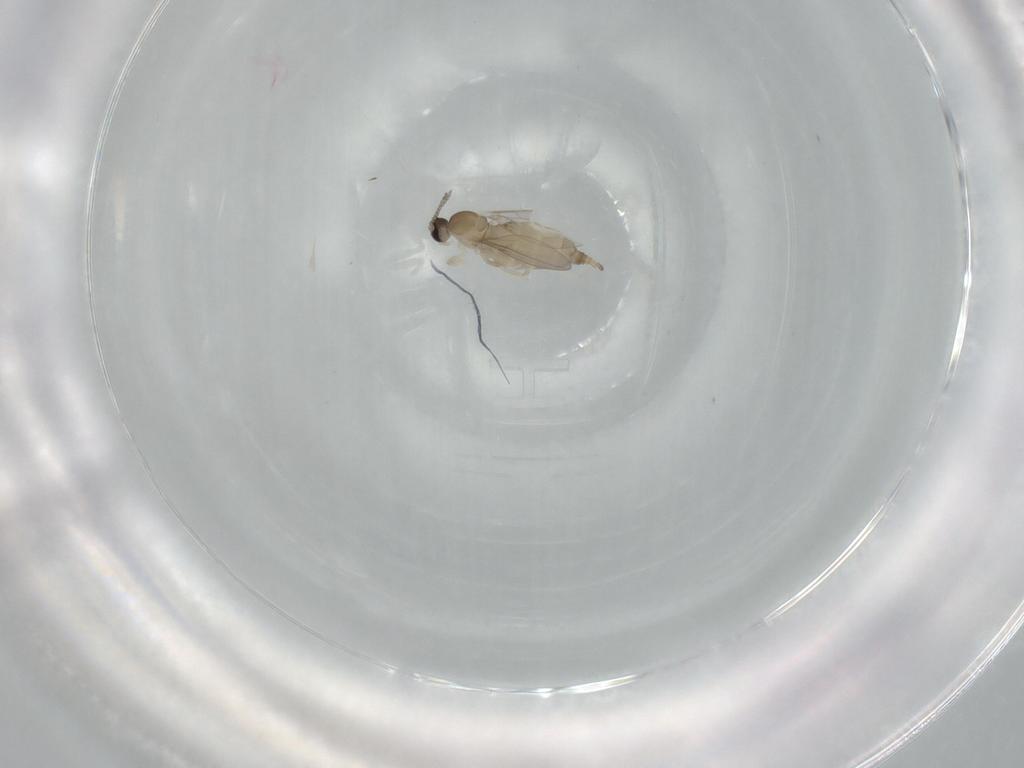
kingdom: Animalia
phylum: Arthropoda
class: Insecta
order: Diptera
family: Cecidomyiidae
